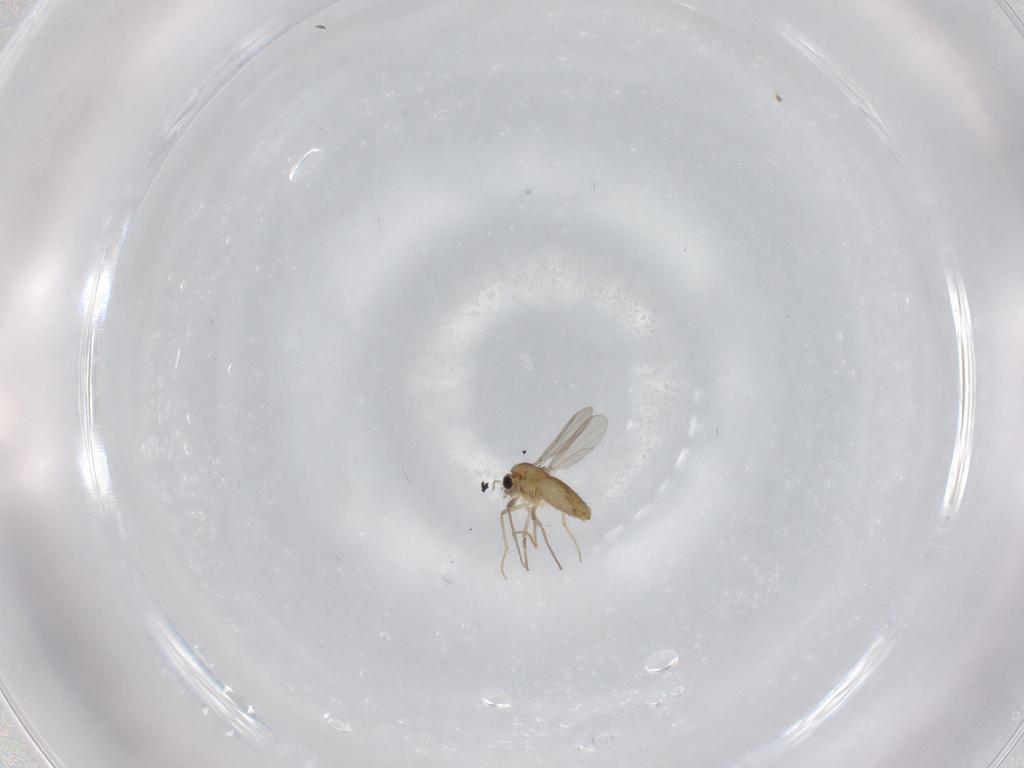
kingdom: Animalia
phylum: Arthropoda
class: Insecta
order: Diptera
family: Chironomidae
